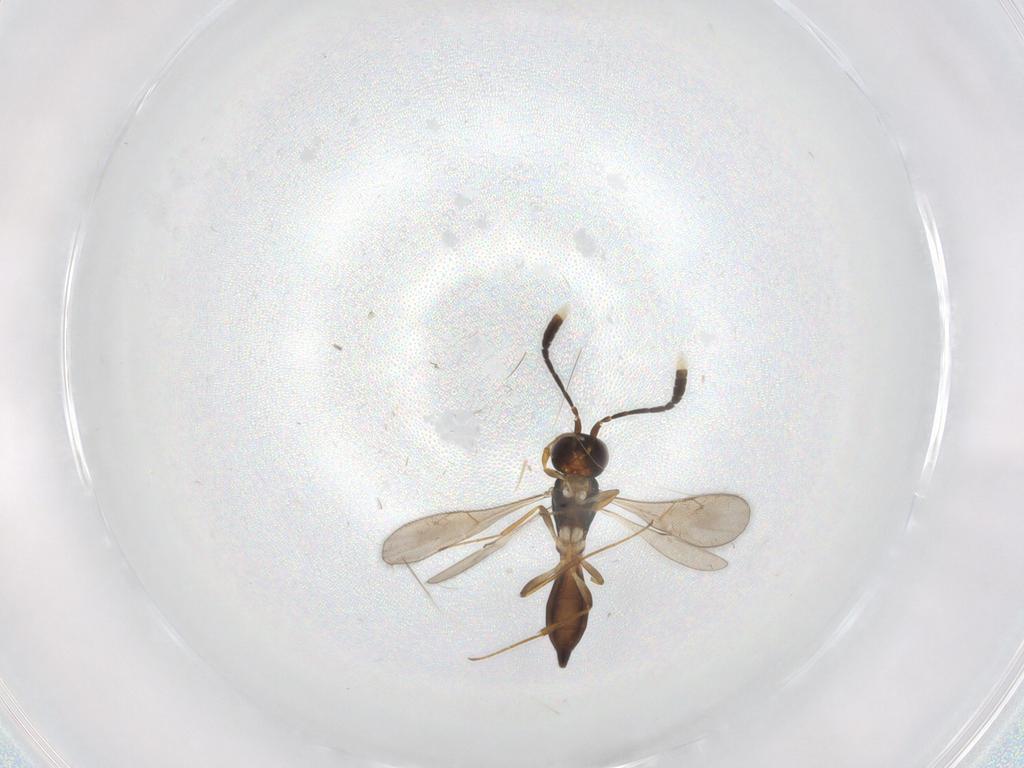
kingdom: Animalia
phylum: Arthropoda
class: Insecta
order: Hymenoptera
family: Scelionidae
